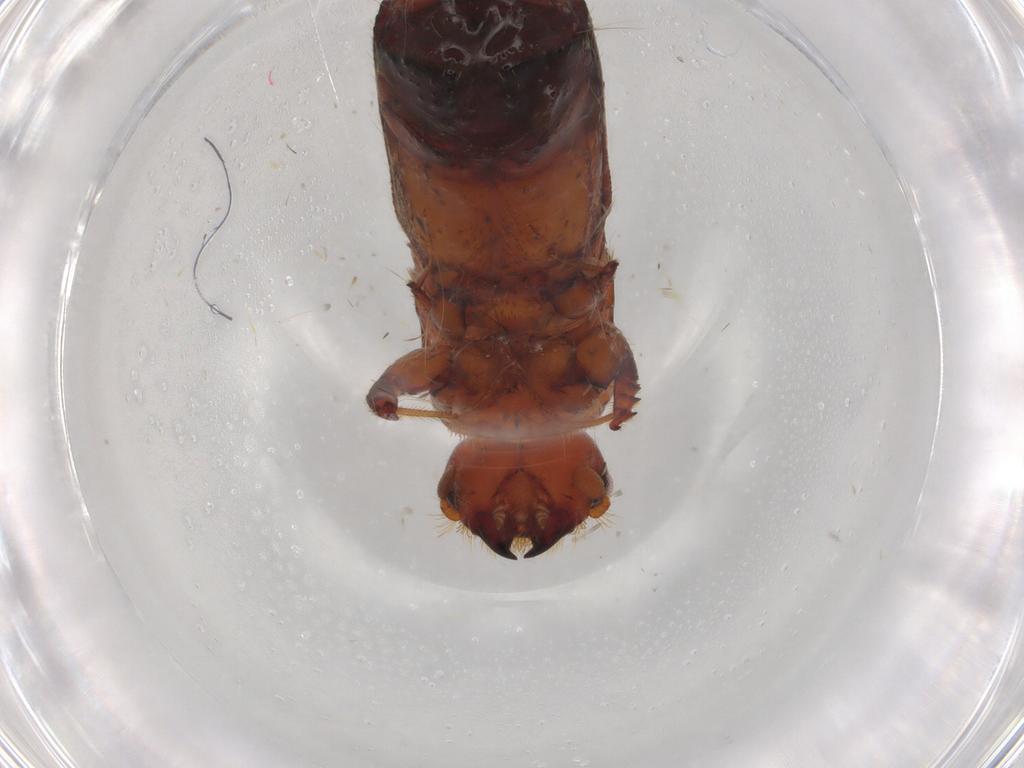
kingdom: Animalia
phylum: Arthropoda
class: Insecta
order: Coleoptera
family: Curculionidae
